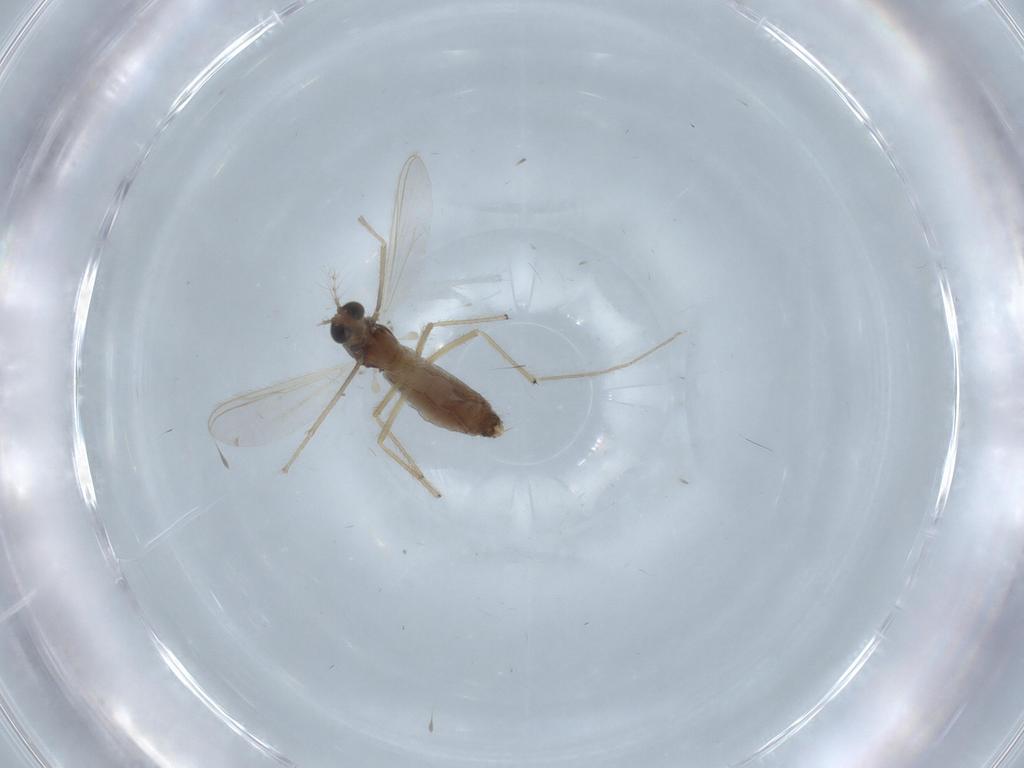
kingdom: Animalia
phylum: Arthropoda
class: Insecta
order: Diptera
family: Chironomidae
